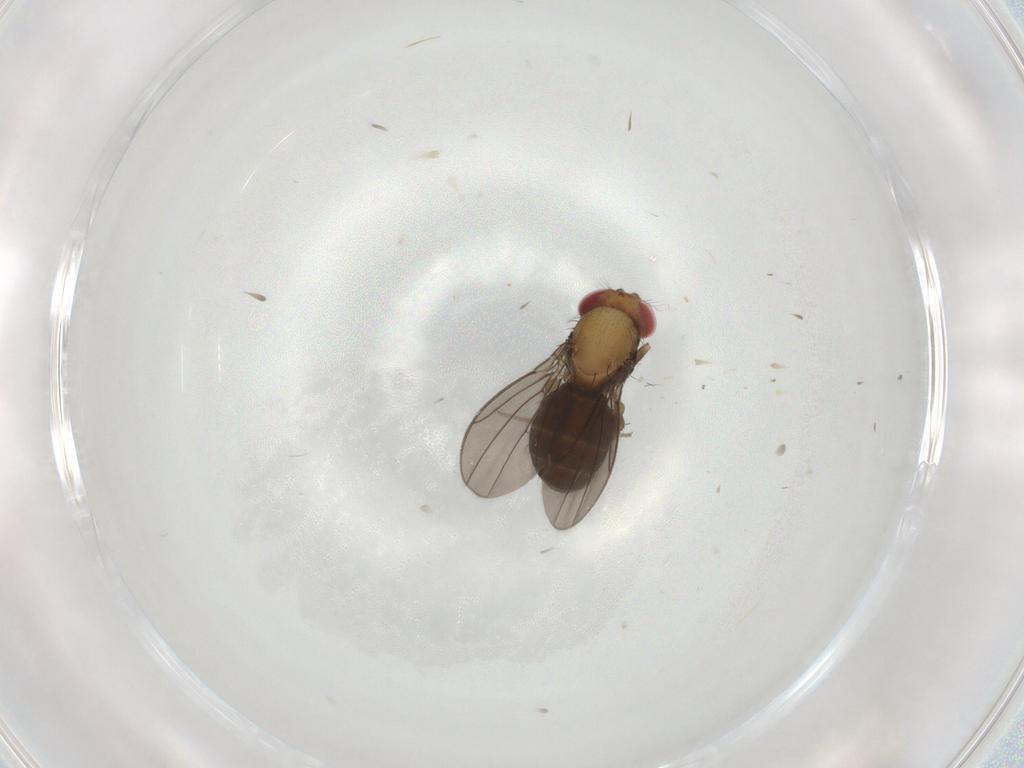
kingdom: Animalia
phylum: Arthropoda
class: Insecta
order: Diptera
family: Drosophilidae
